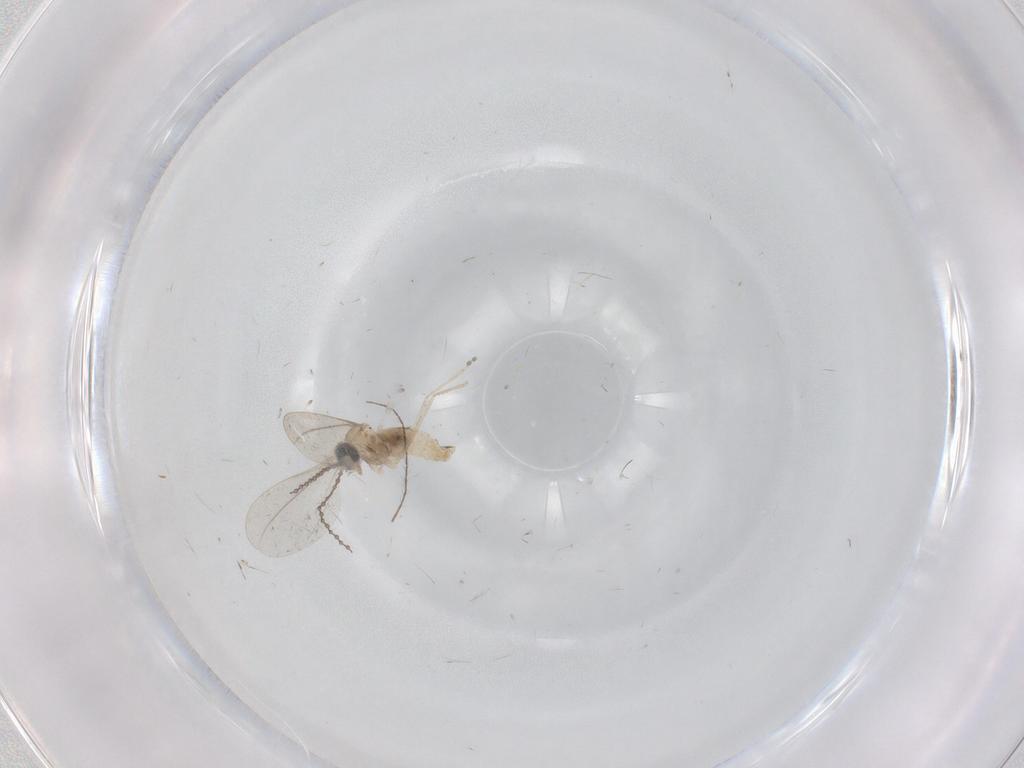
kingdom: Animalia
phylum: Arthropoda
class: Insecta
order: Diptera
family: Cecidomyiidae
